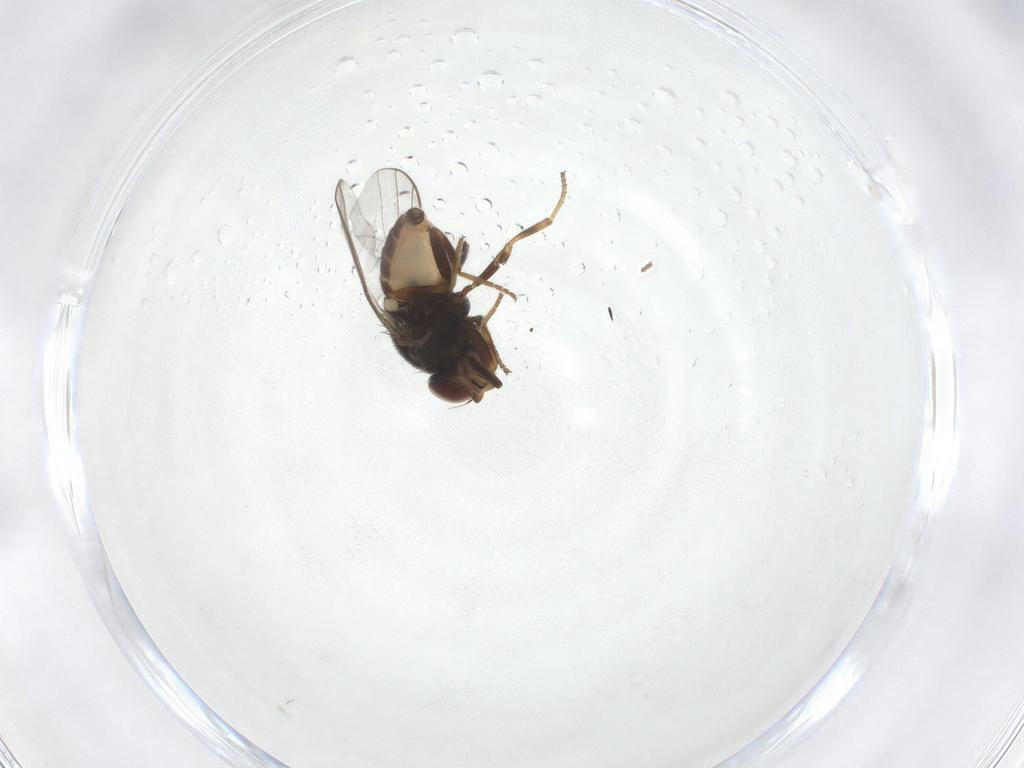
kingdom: Animalia
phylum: Arthropoda
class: Insecta
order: Diptera
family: Chloropidae
